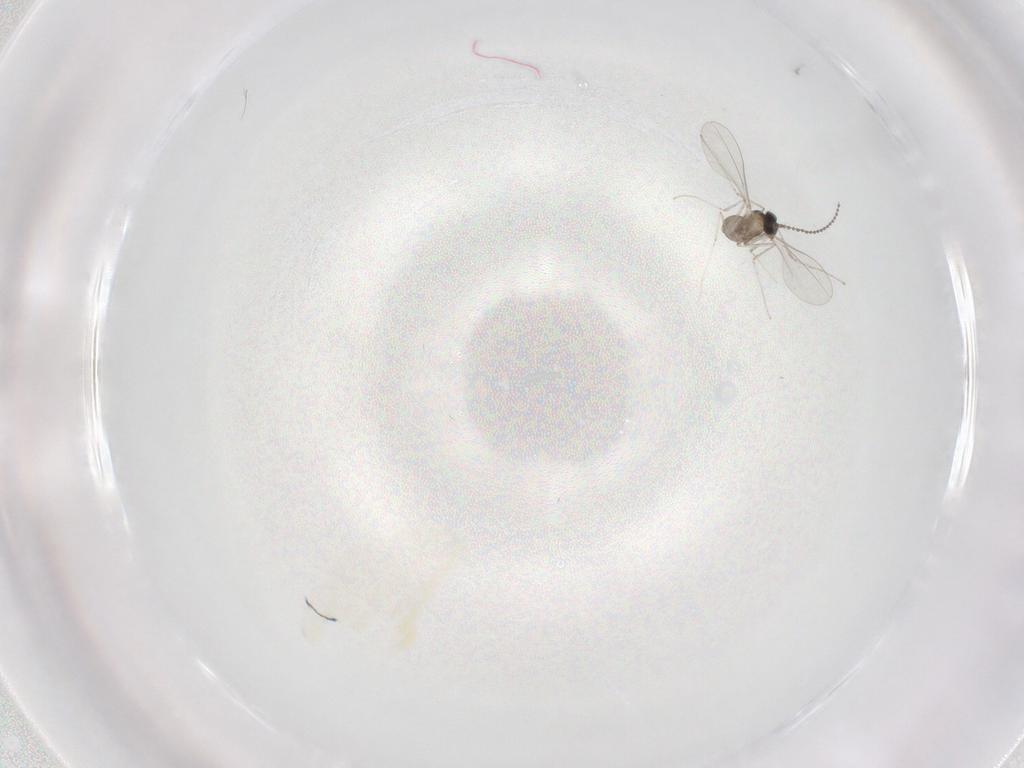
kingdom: Animalia
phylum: Arthropoda
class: Insecta
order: Diptera
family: Cecidomyiidae
